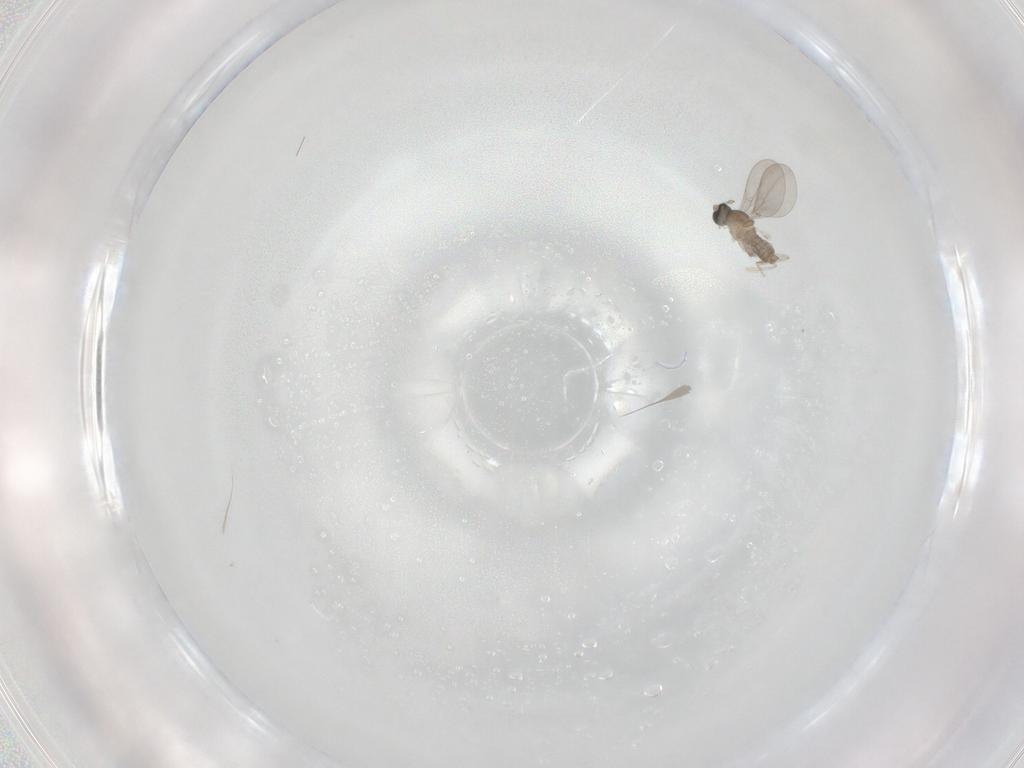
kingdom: Animalia
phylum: Arthropoda
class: Insecta
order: Diptera
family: Sciaridae
